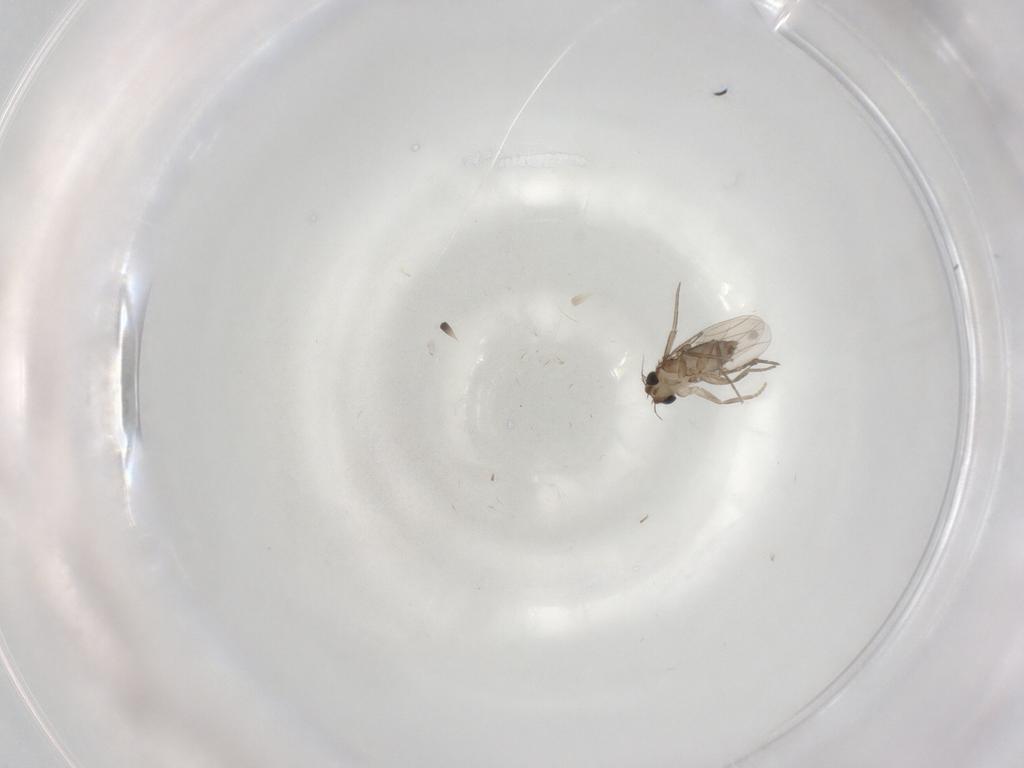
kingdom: Animalia
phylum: Arthropoda
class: Insecta
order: Diptera
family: Phoridae
